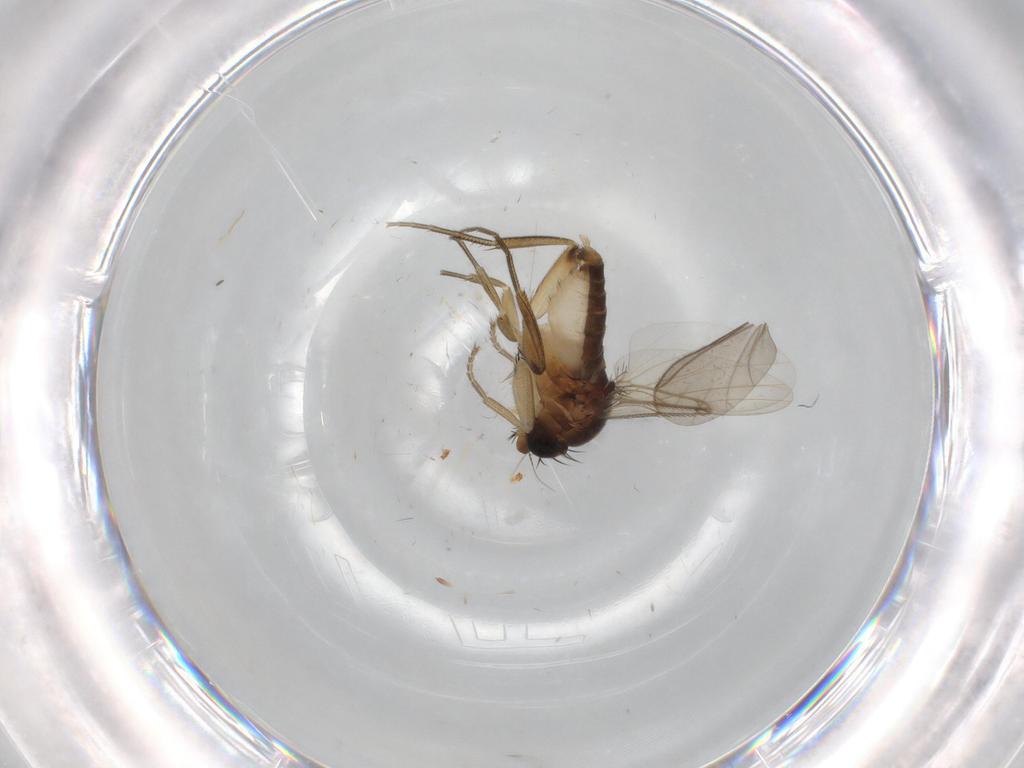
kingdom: Animalia
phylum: Arthropoda
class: Insecta
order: Diptera
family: Phoridae
